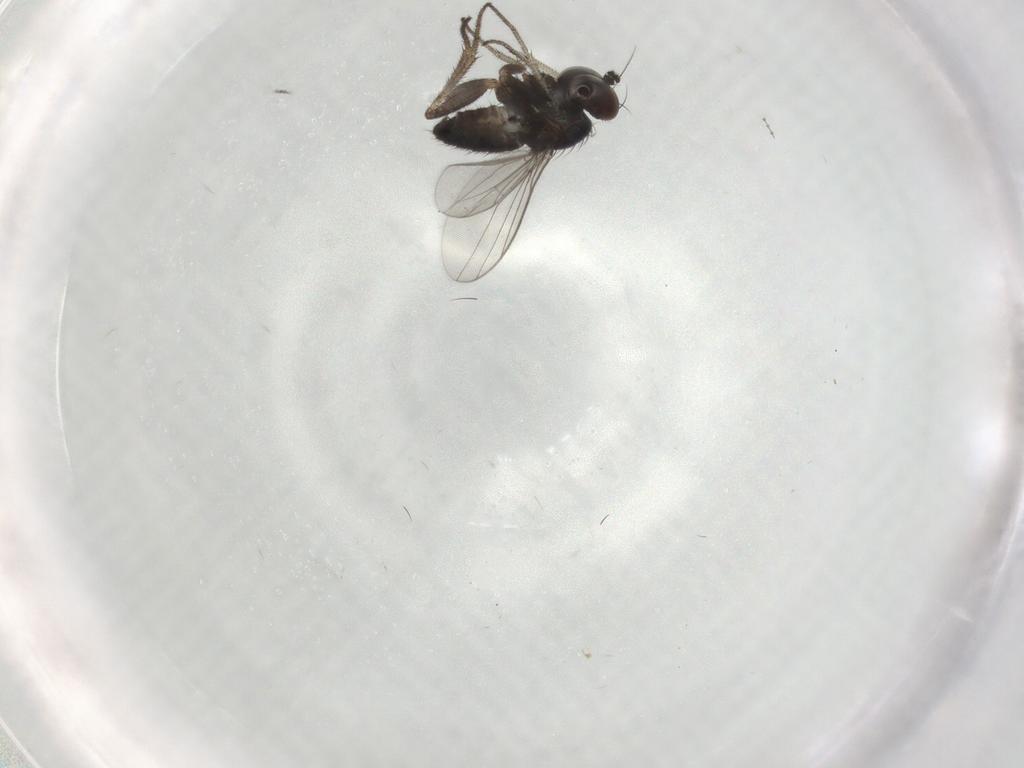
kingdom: Animalia
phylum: Arthropoda
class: Insecta
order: Diptera
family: Dolichopodidae
